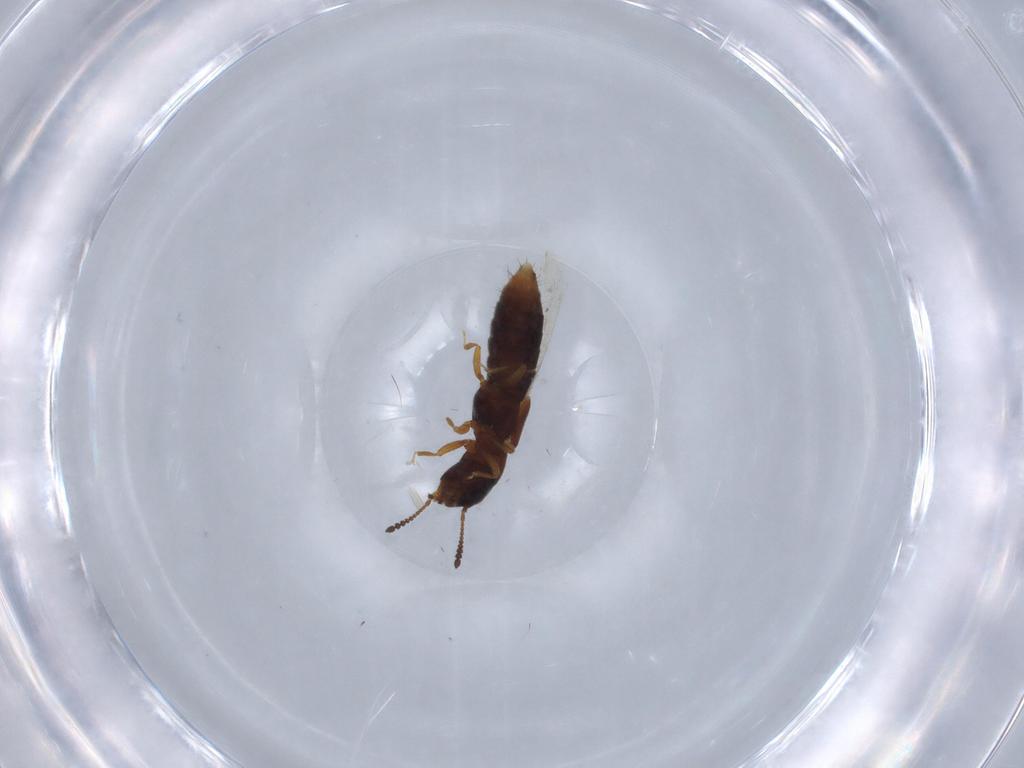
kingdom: Animalia
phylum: Arthropoda
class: Insecta
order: Coleoptera
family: Staphylinidae
